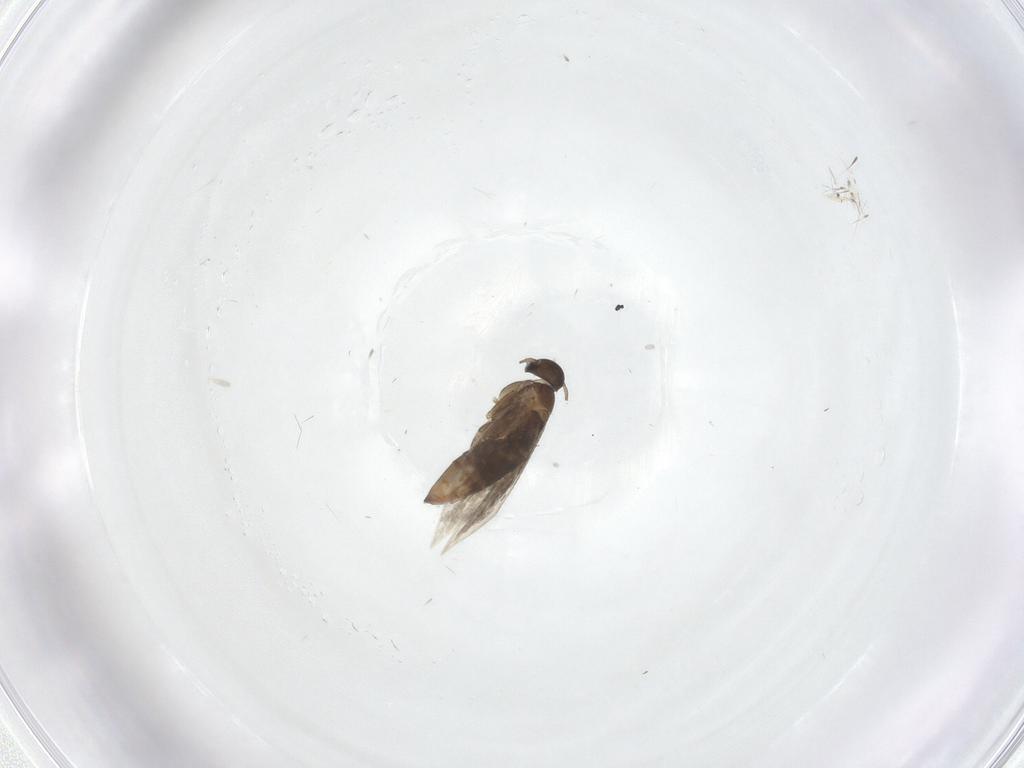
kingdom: Animalia
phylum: Arthropoda
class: Insecta
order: Lepidoptera
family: Heliozelidae
